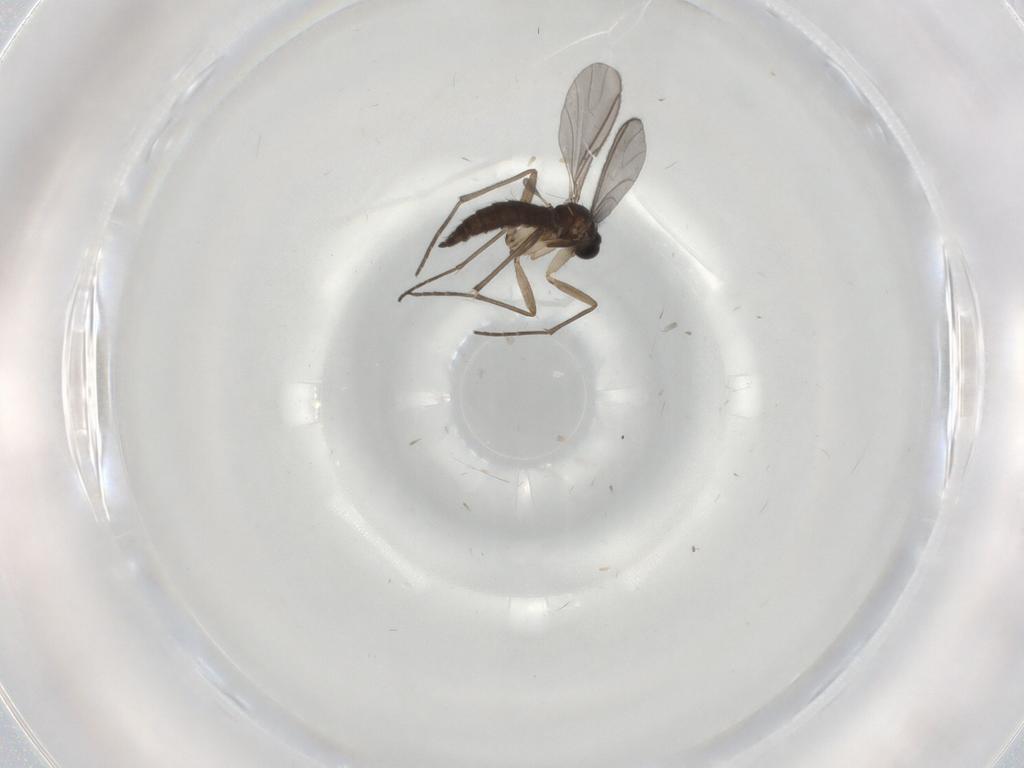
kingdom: Animalia
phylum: Arthropoda
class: Insecta
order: Diptera
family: Sciaridae
